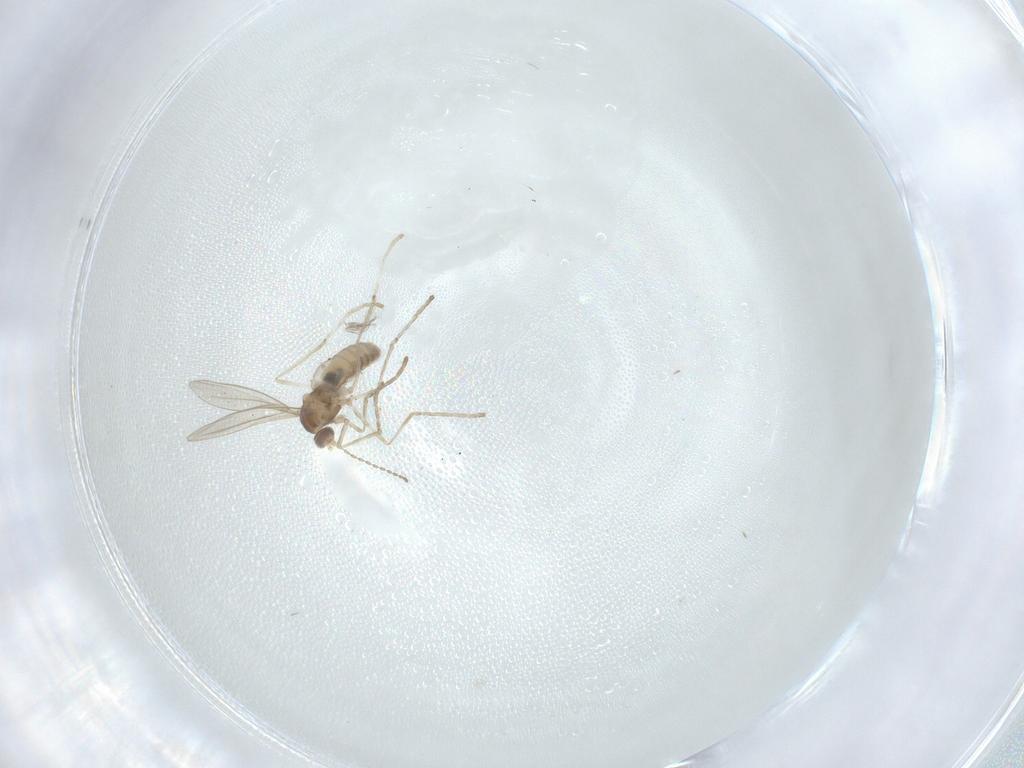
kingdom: Animalia
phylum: Arthropoda
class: Insecta
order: Diptera
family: Cecidomyiidae
